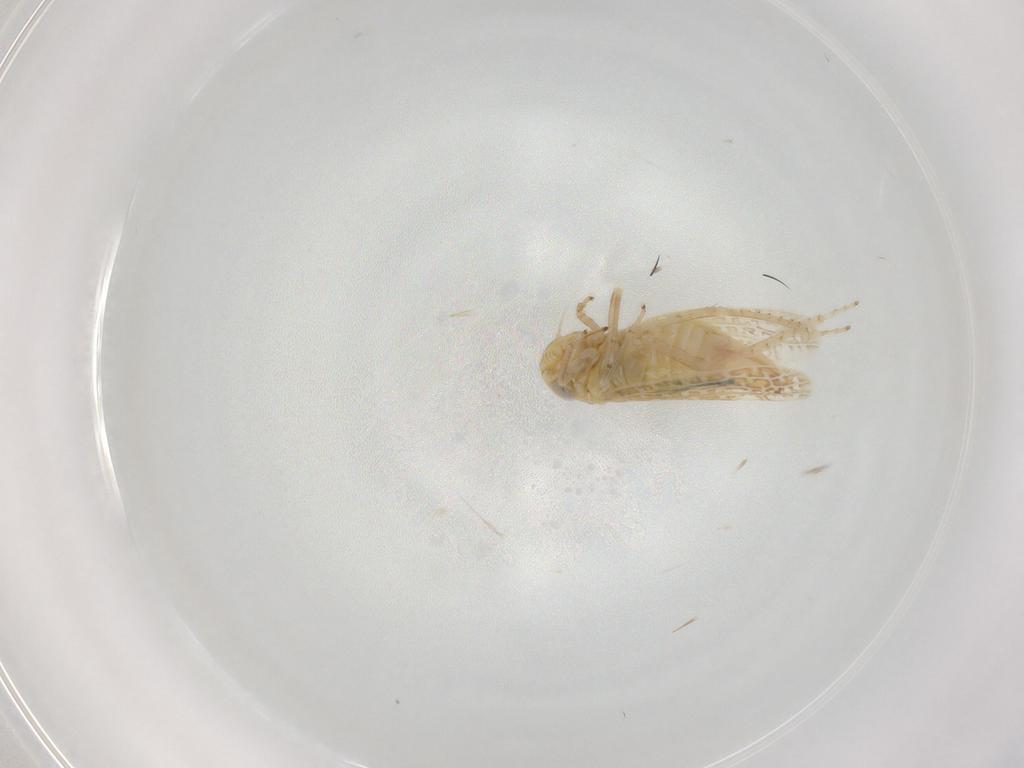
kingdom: Animalia
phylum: Arthropoda
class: Insecta
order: Hemiptera
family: Cicadellidae
